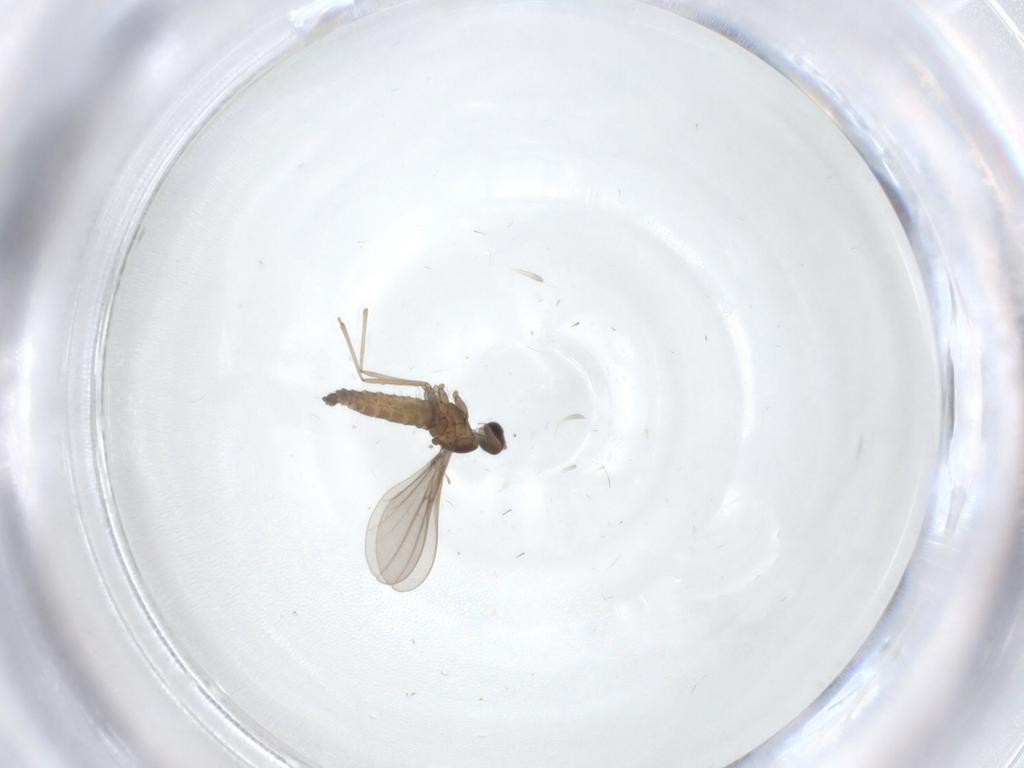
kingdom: Animalia
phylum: Arthropoda
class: Insecta
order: Diptera
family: Cecidomyiidae
